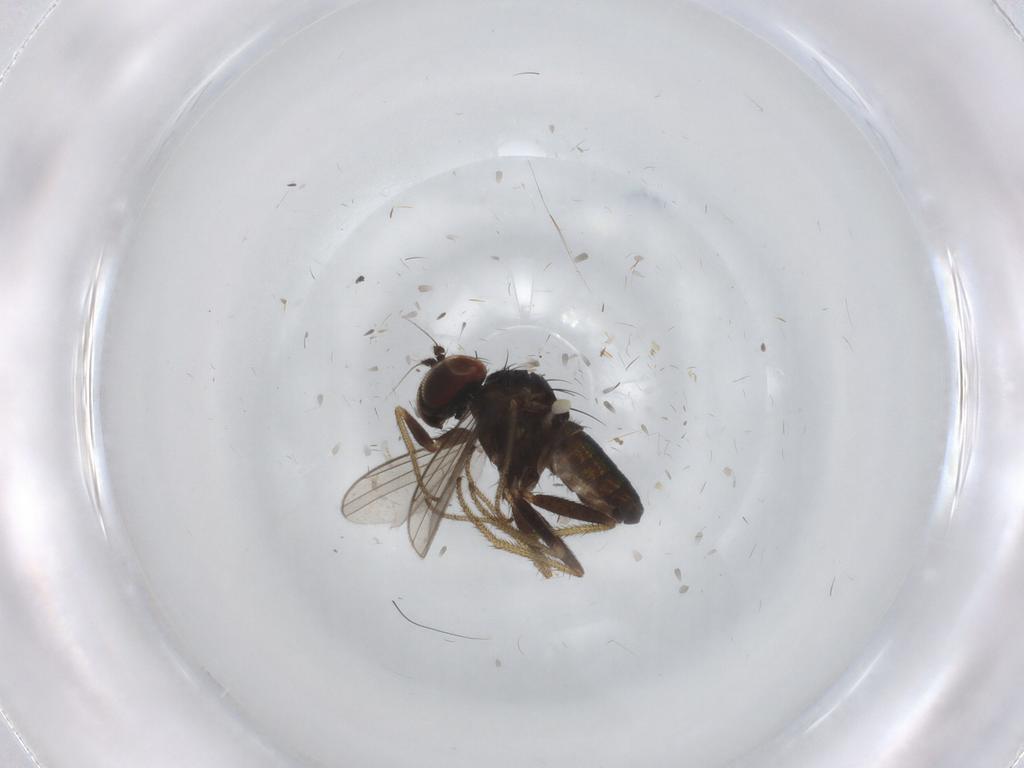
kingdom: Animalia
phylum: Arthropoda
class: Insecta
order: Diptera
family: Dolichopodidae
